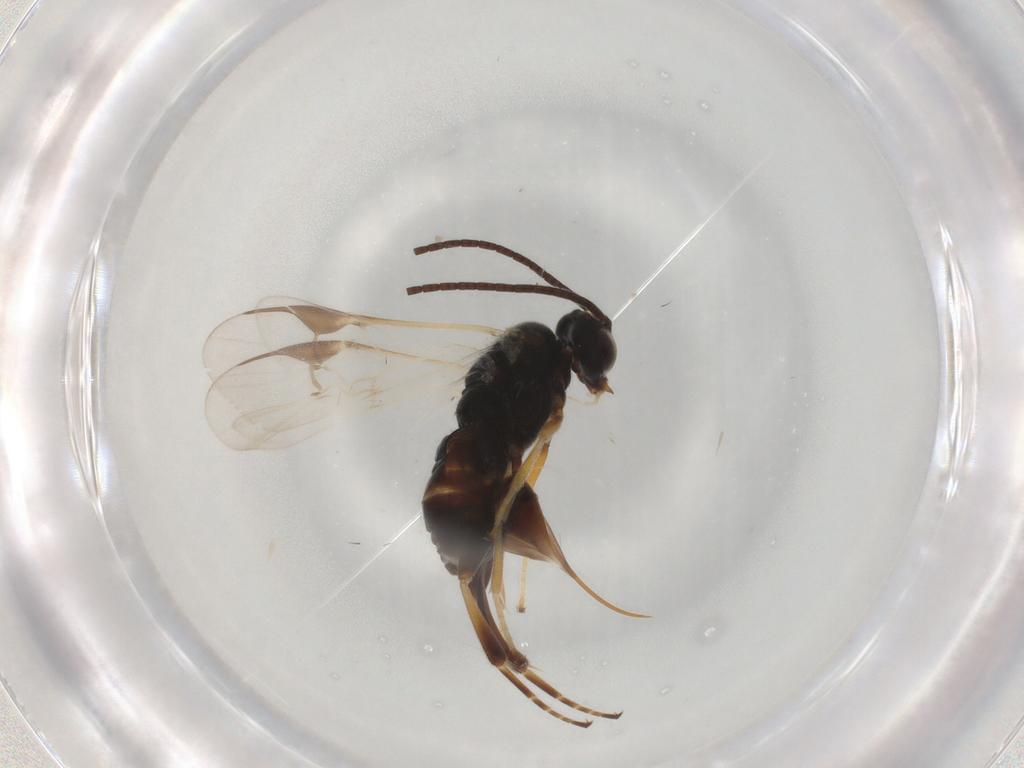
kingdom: Animalia
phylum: Arthropoda
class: Insecta
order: Hymenoptera
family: Braconidae
